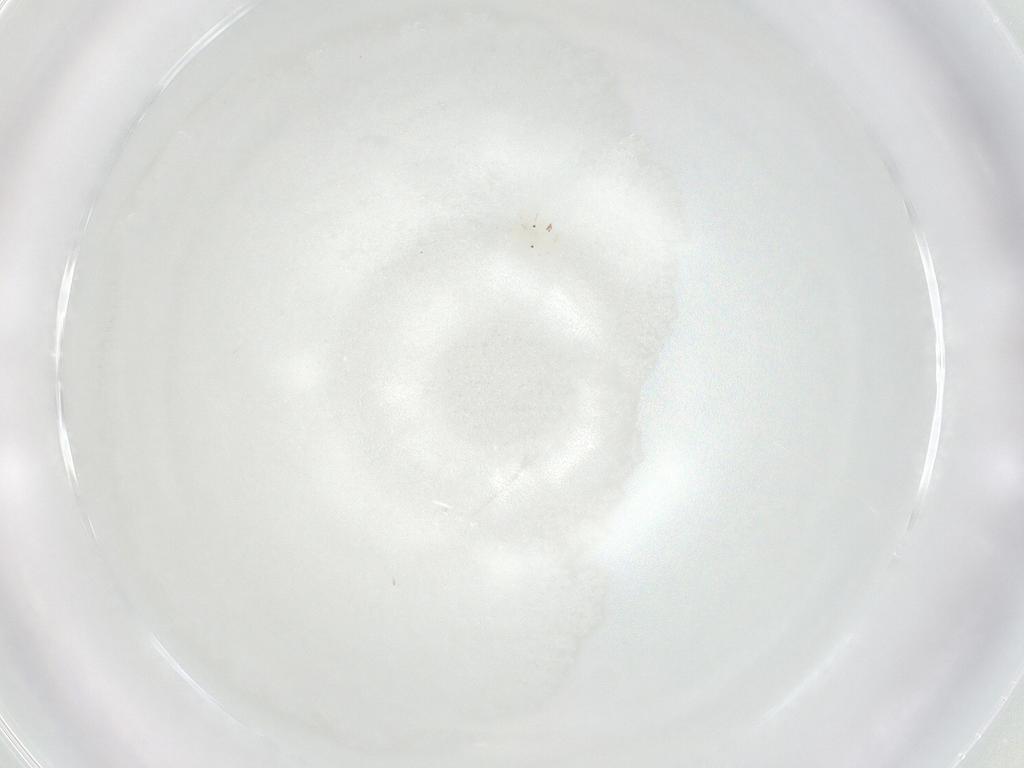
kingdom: Animalia
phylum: Arthropoda
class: Arachnida
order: Trombidiformes
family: Anystidae
